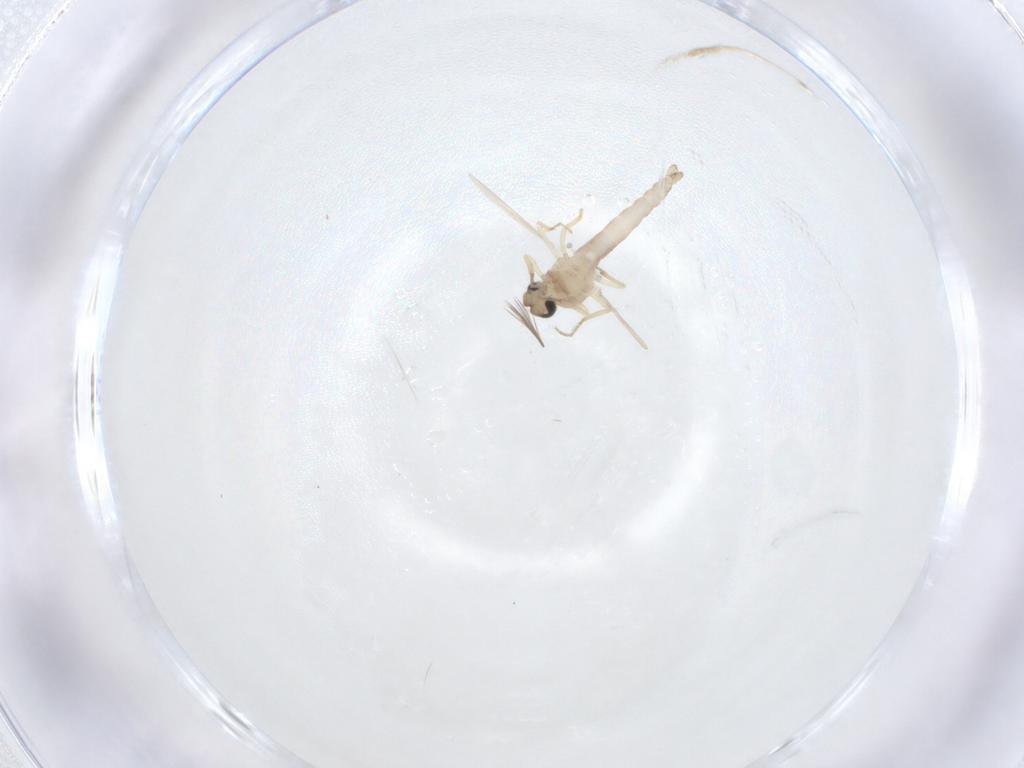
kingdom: Animalia
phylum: Arthropoda
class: Insecta
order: Diptera
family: Ceratopogonidae
